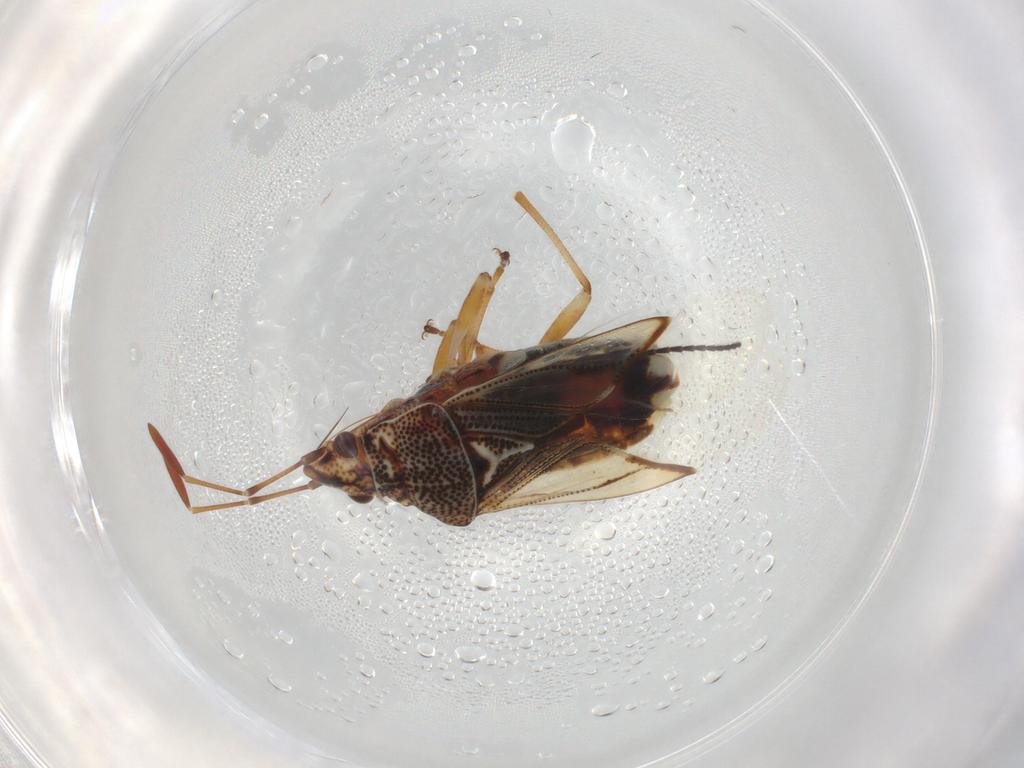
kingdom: Animalia
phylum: Arthropoda
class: Insecta
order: Hemiptera
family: Lygaeidae
